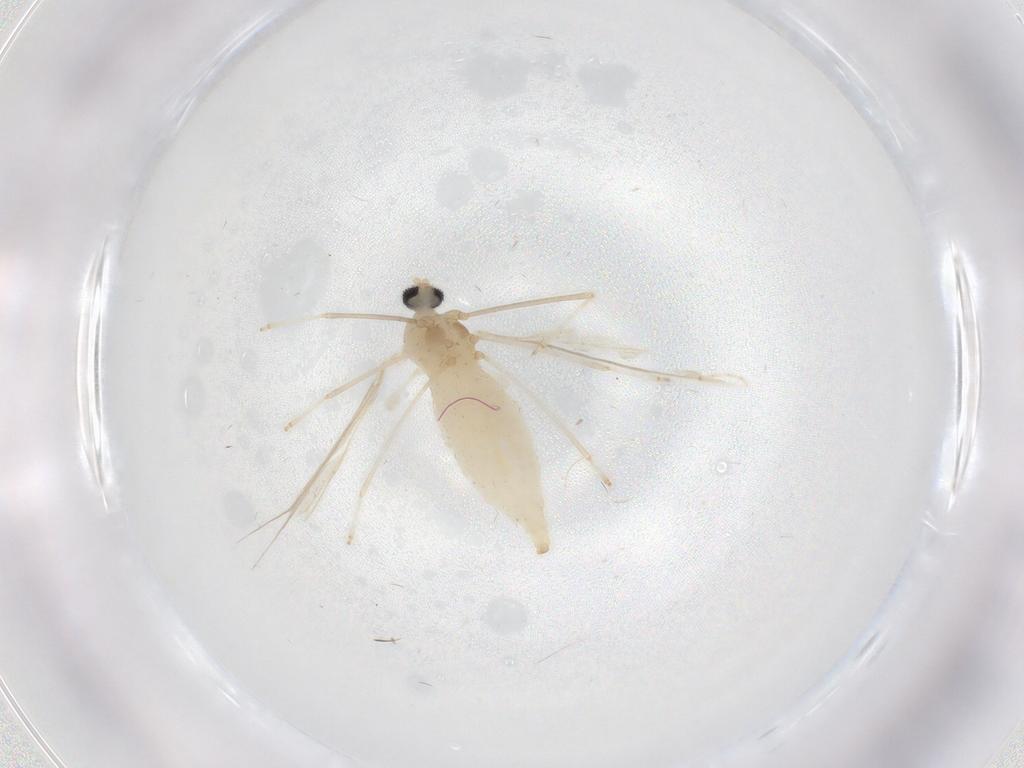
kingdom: Animalia
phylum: Arthropoda
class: Insecta
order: Diptera
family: Cecidomyiidae
